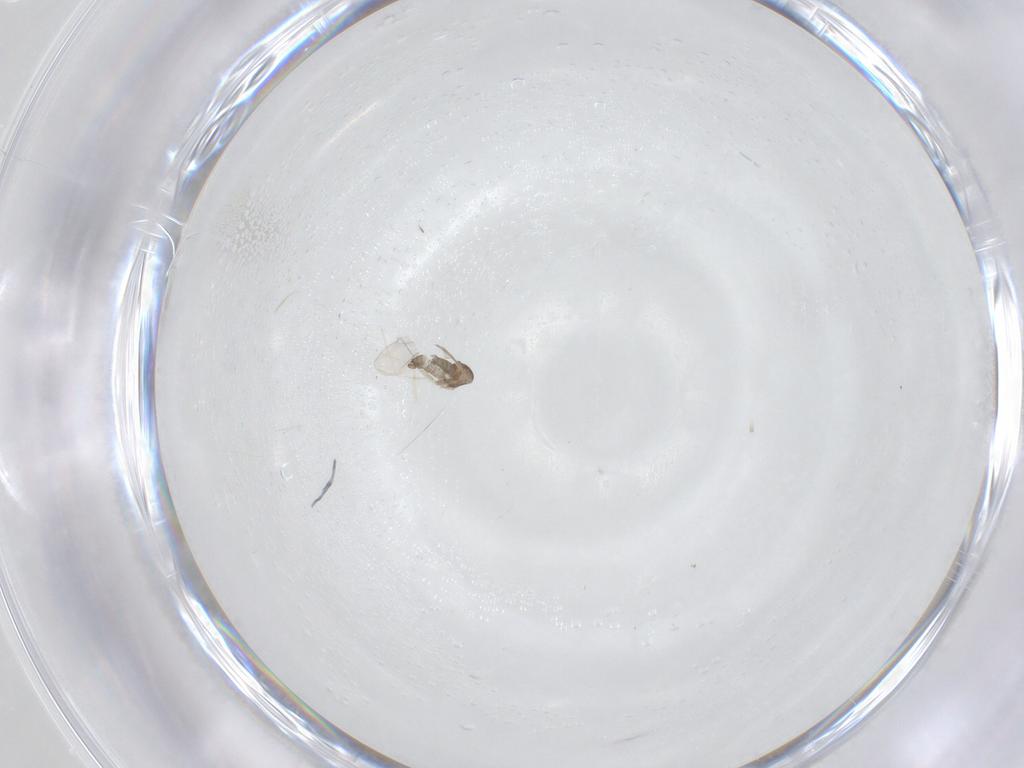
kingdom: Animalia
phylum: Arthropoda
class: Insecta
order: Diptera
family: Cecidomyiidae
